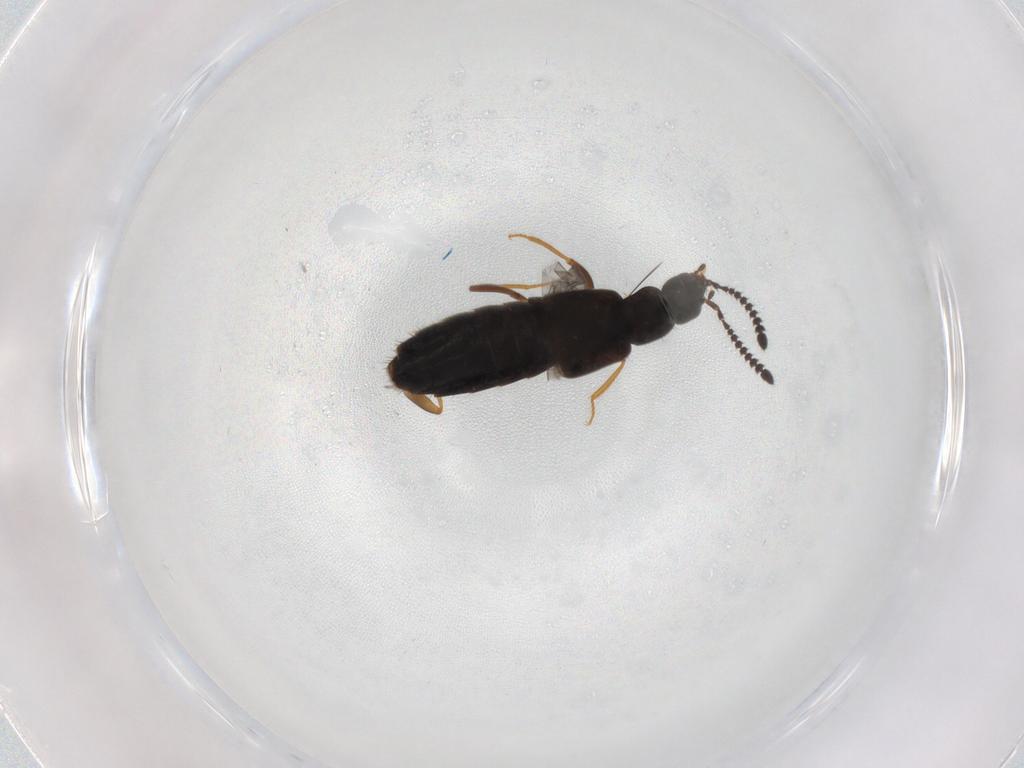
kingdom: Animalia
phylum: Arthropoda
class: Insecta
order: Coleoptera
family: Staphylinidae
